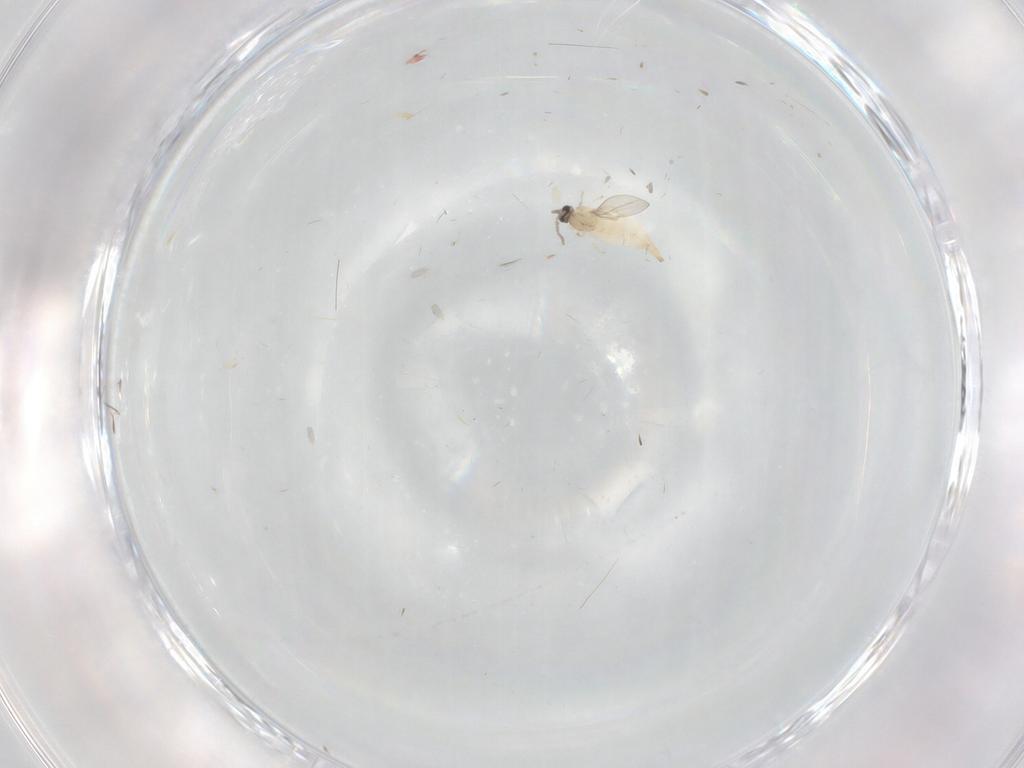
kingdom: Animalia
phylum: Arthropoda
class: Insecta
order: Diptera
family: Cecidomyiidae
